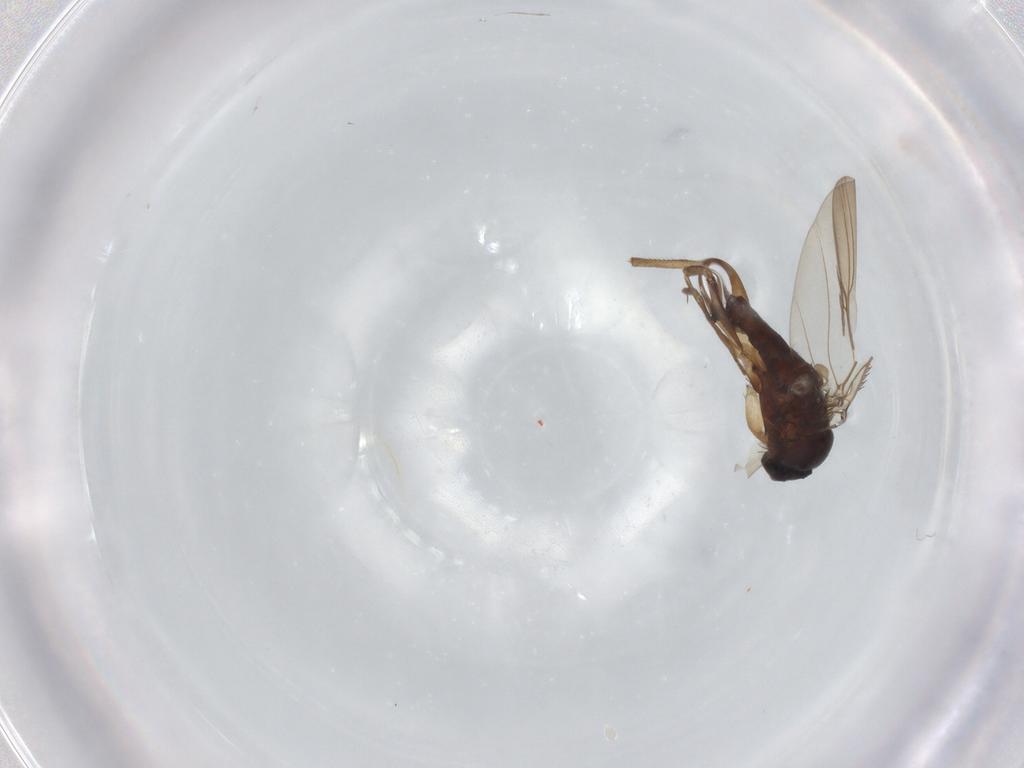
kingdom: Animalia
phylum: Arthropoda
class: Insecta
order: Diptera
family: Phoridae
